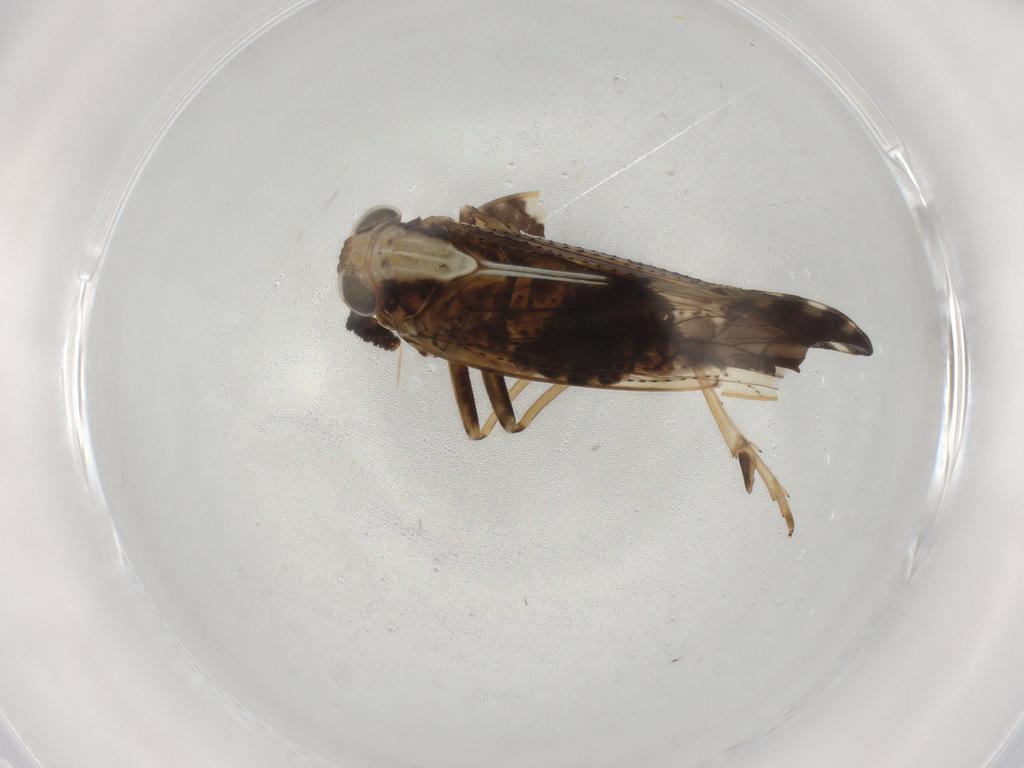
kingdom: Animalia
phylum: Arthropoda
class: Insecta
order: Hemiptera
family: Delphacidae
